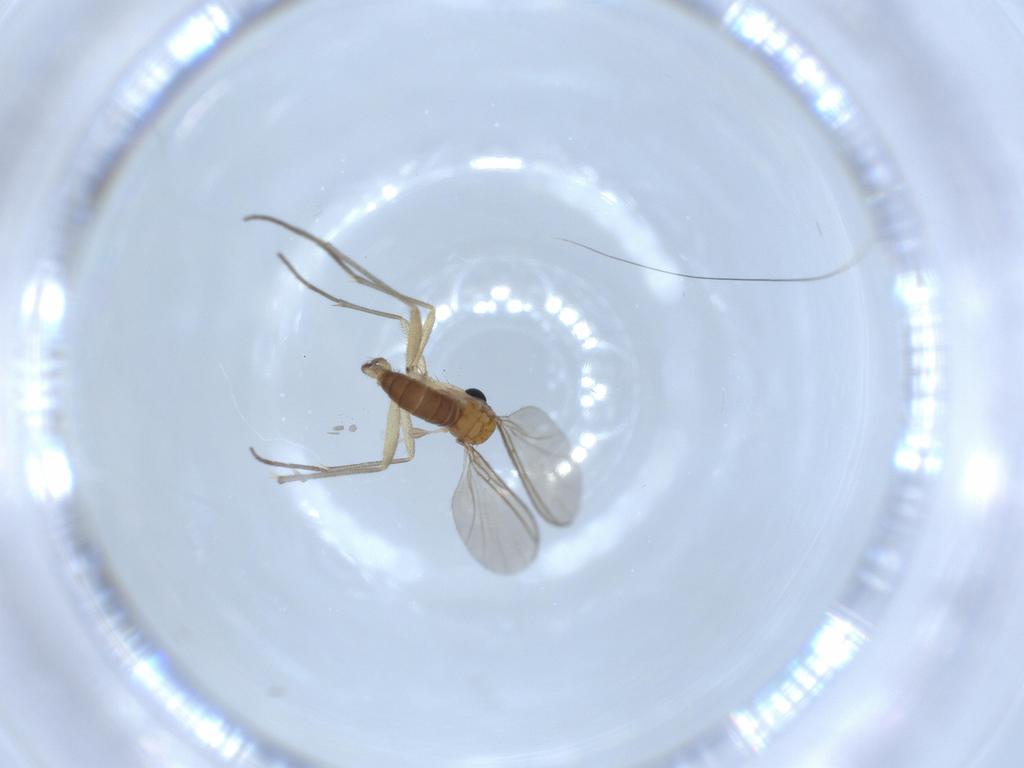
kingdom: Animalia
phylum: Arthropoda
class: Insecta
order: Diptera
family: Sciaridae
